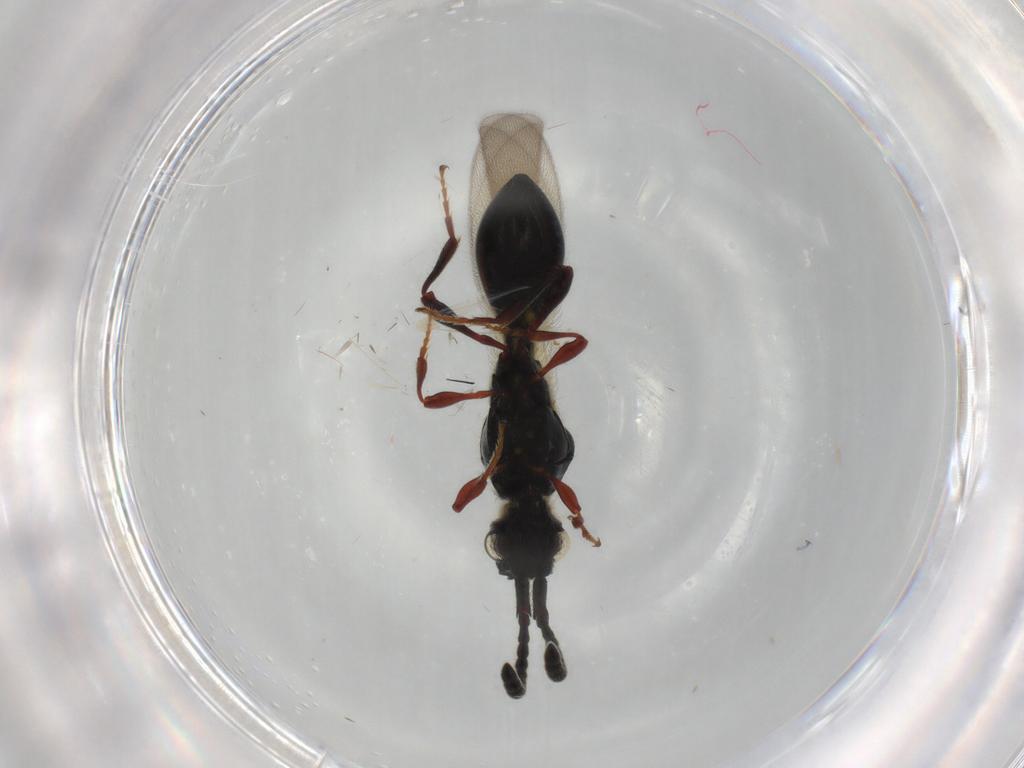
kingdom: Animalia
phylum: Arthropoda
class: Insecta
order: Hymenoptera
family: Diapriidae
